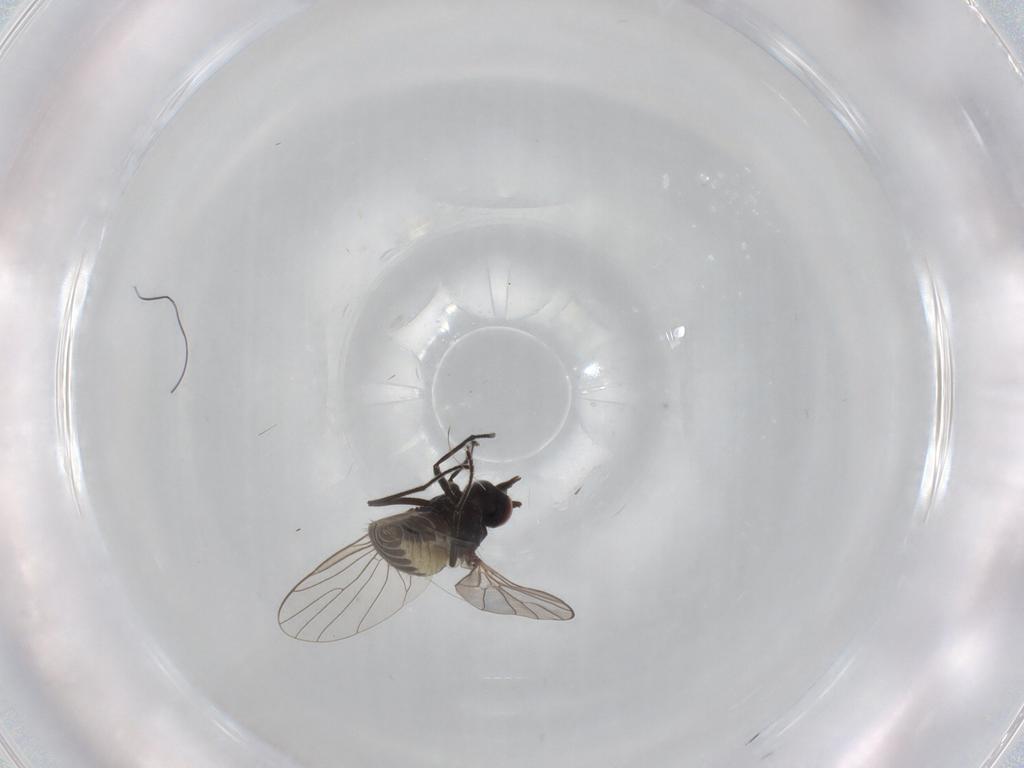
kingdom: Animalia
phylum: Arthropoda
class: Insecta
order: Diptera
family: Bombyliidae
